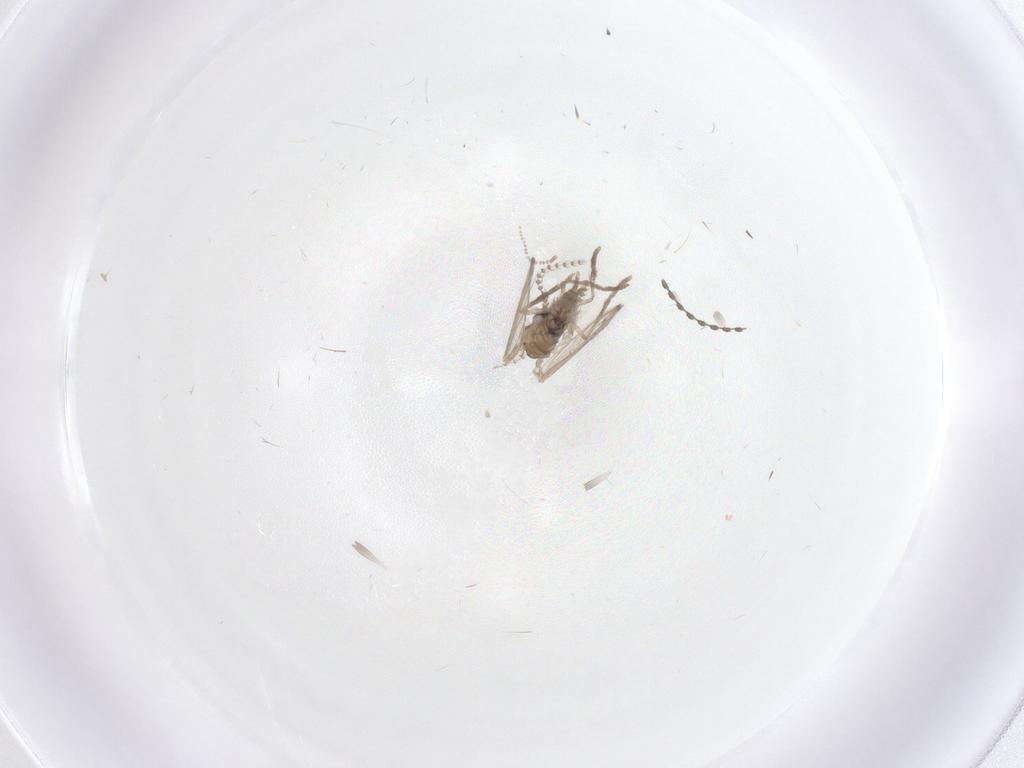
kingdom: Animalia
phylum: Arthropoda
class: Insecta
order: Diptera
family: Psychodidae
